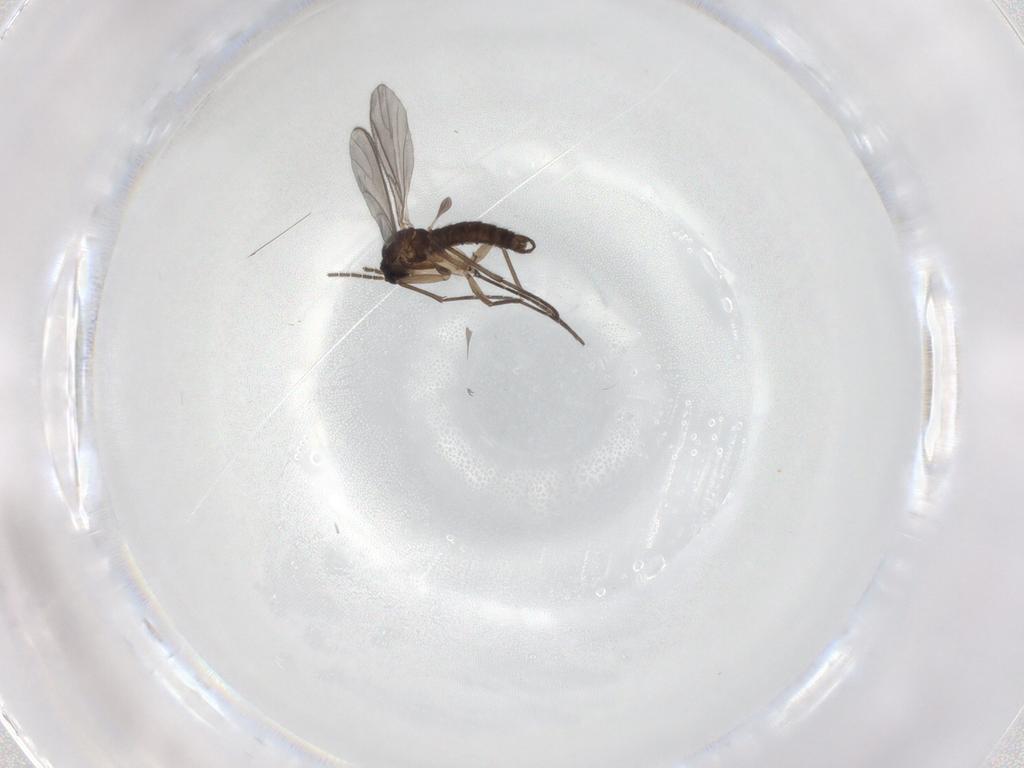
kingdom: Animalia
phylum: Arthropoda
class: Insecta
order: Diptera
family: Sciaridae
